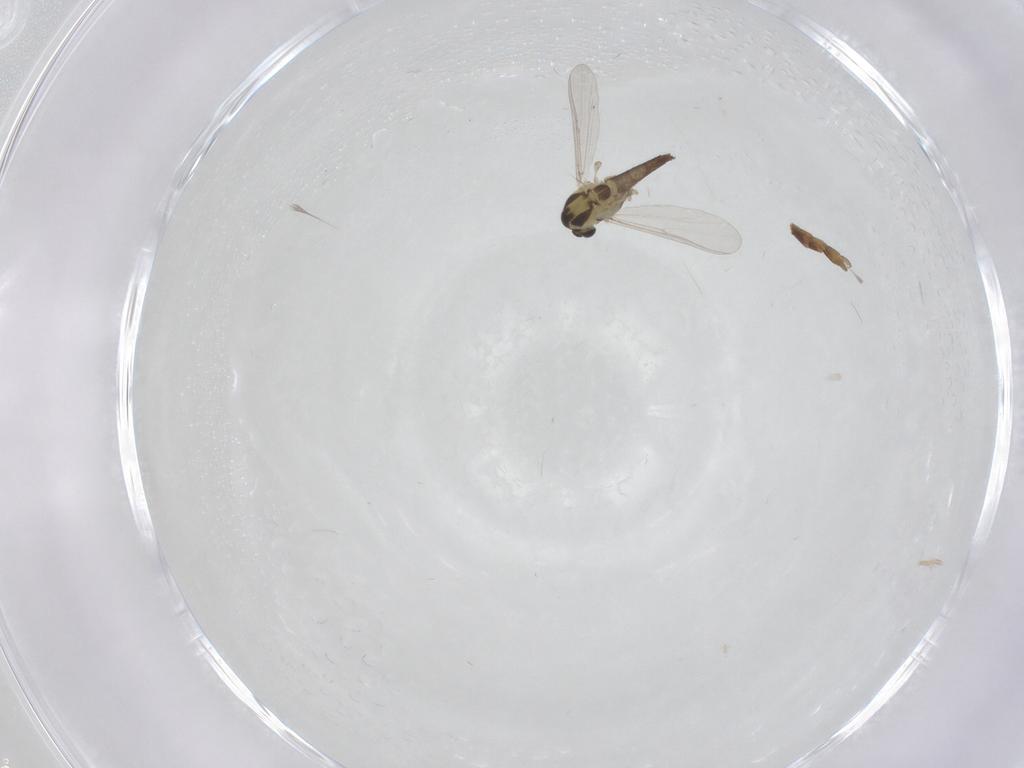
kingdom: Animalia
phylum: Arthropoda
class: Insecta
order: Diptera
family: Chironomidae
